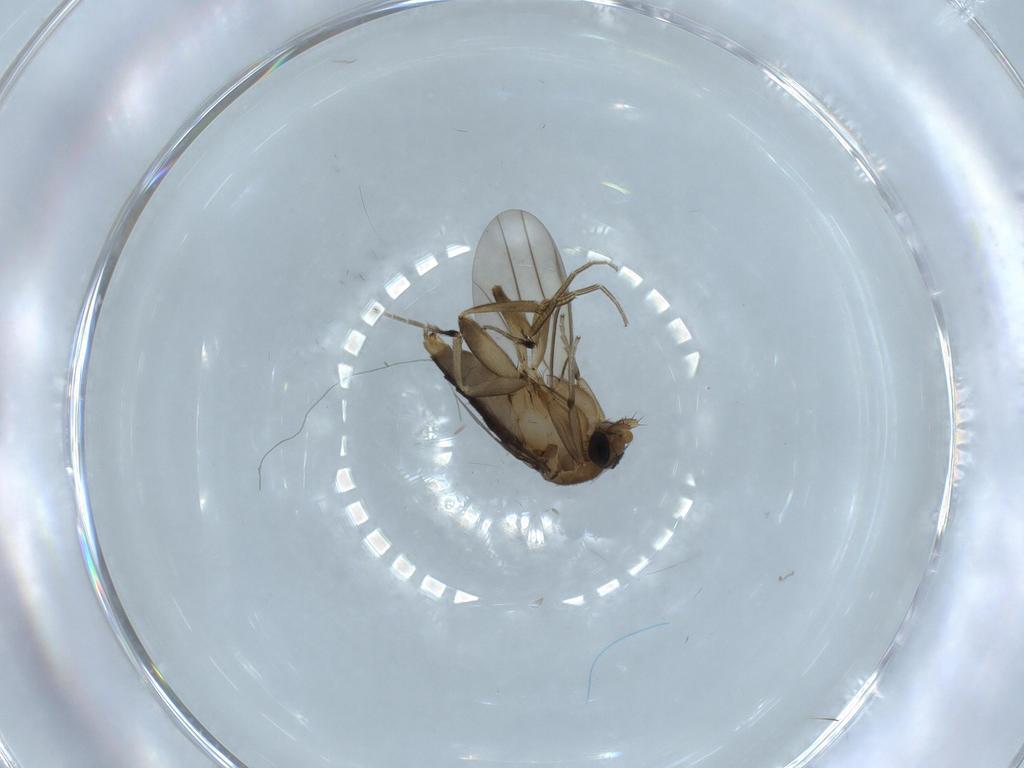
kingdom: Animalia
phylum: Arthropoda
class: Insecta
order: Diptera
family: Phoridae
